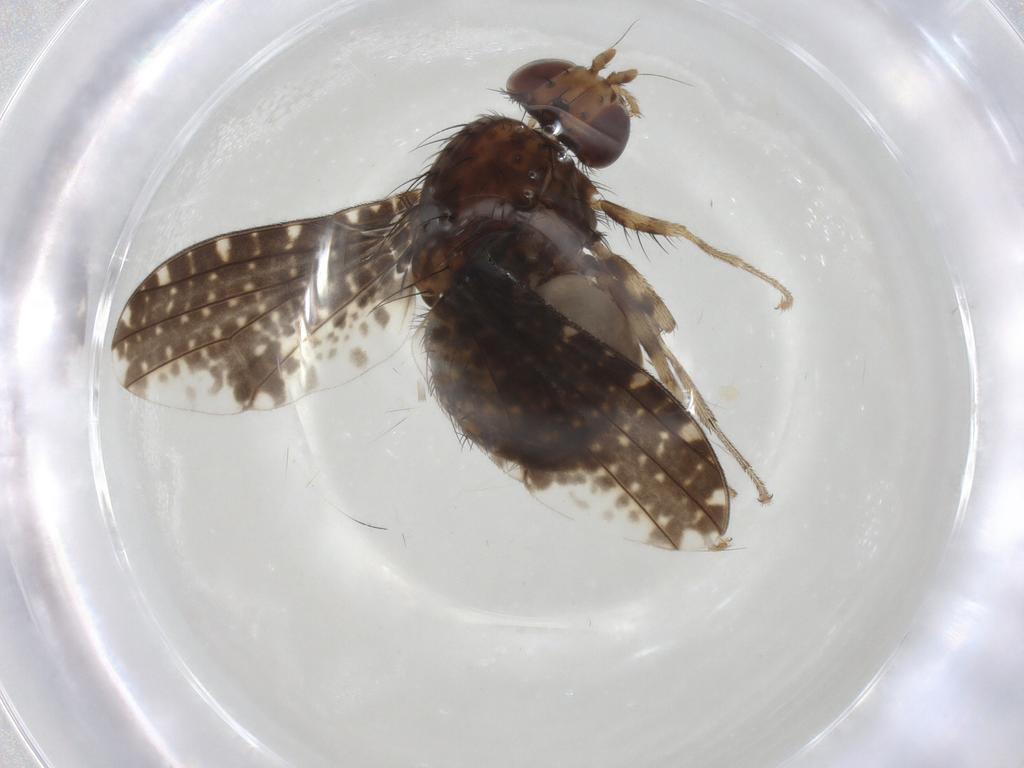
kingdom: Animalia
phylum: Arthropoda
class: Insecta
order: Diptera
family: Lauxaniidae
